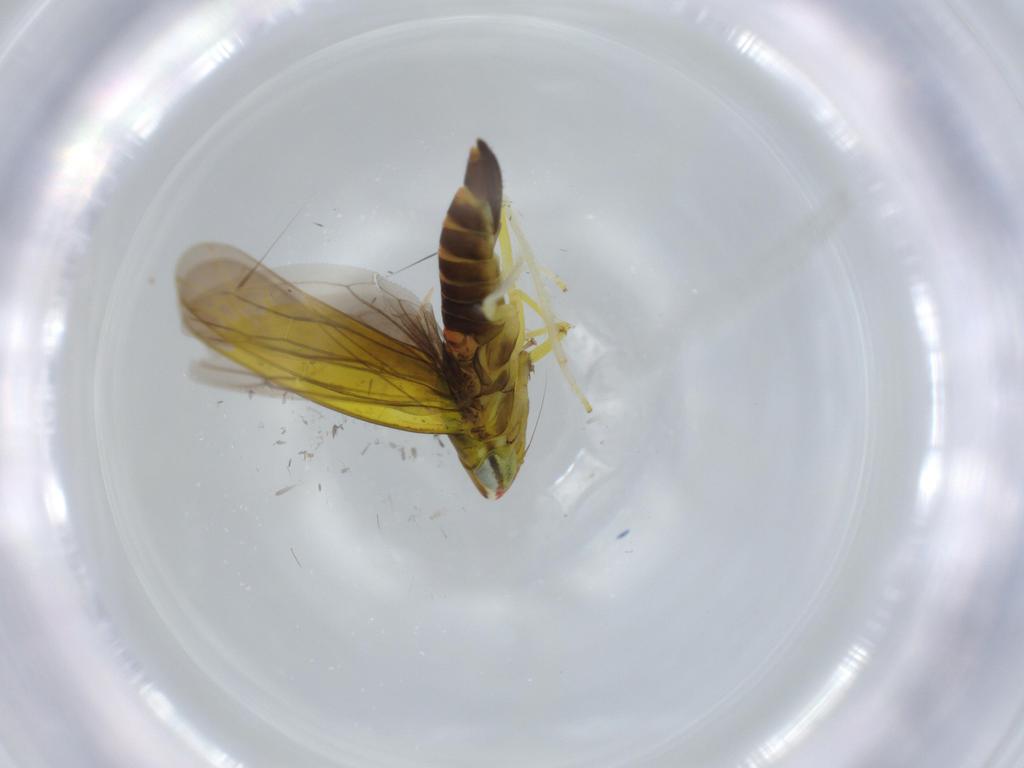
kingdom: Animalia
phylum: Arthropoda
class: Insecta
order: Hemiptera
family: Cicadellidae
